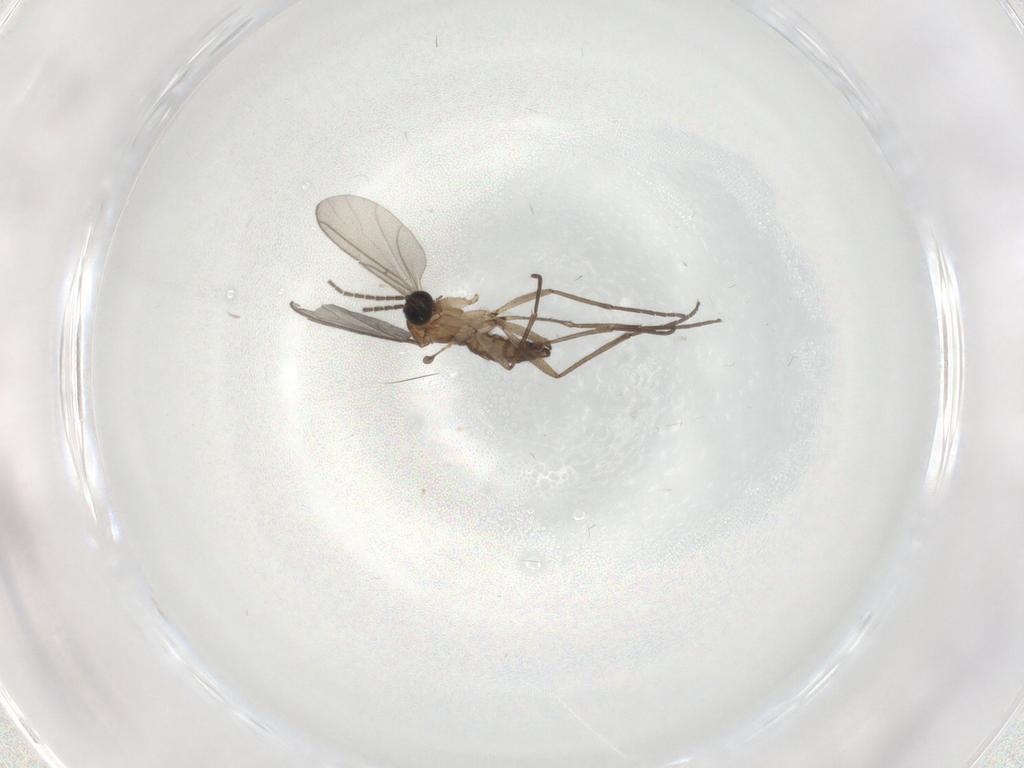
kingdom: Animalia
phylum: Arthropoda
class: Insecta
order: Diptera
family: Sciaridae
